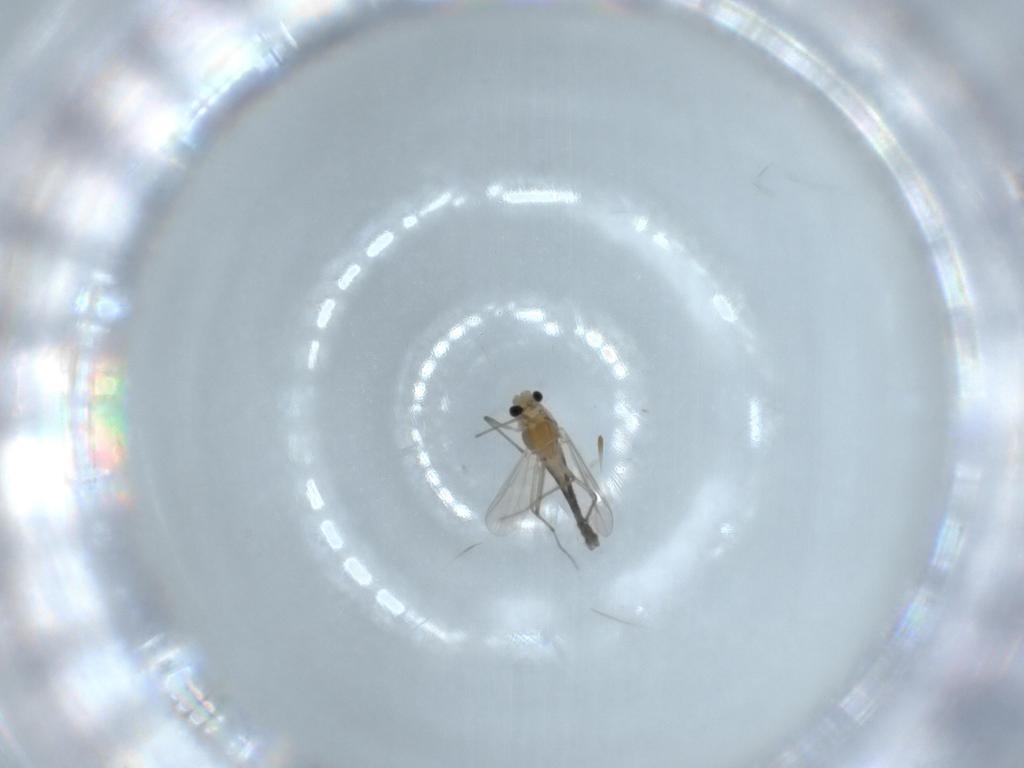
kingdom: Animalia
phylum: Arthropoda
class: Insecta
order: Diptera
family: Chironomidae
